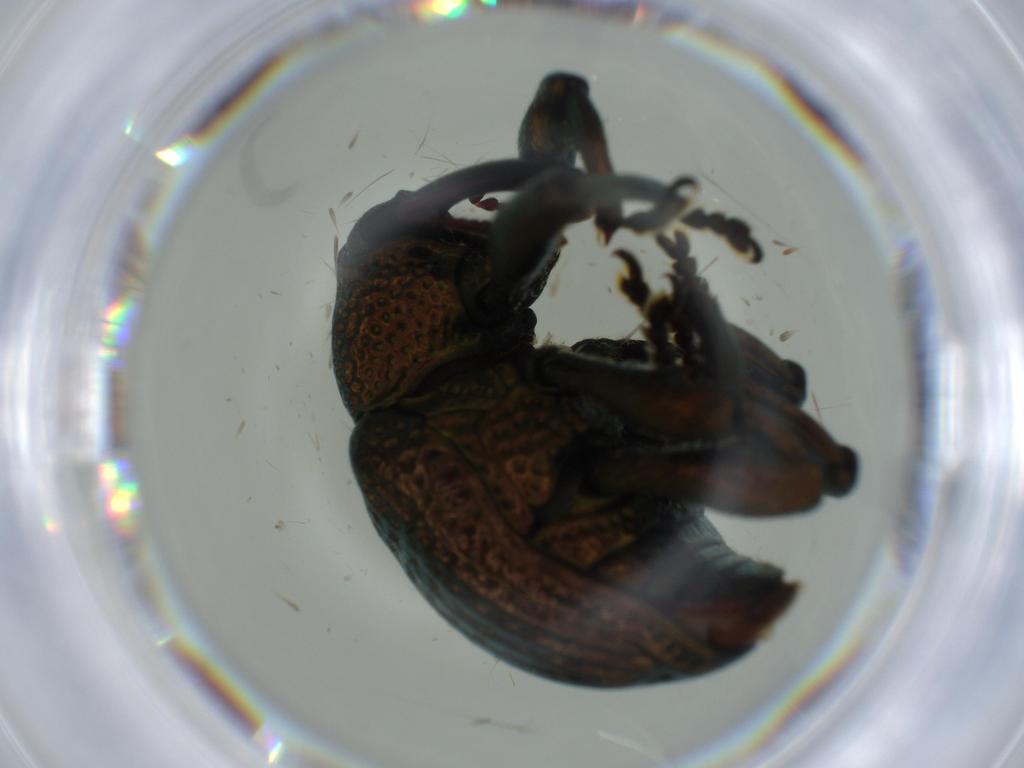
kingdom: Animalia
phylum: Arthropoda
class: Insecta
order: Coleoptera
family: Cantharidae
